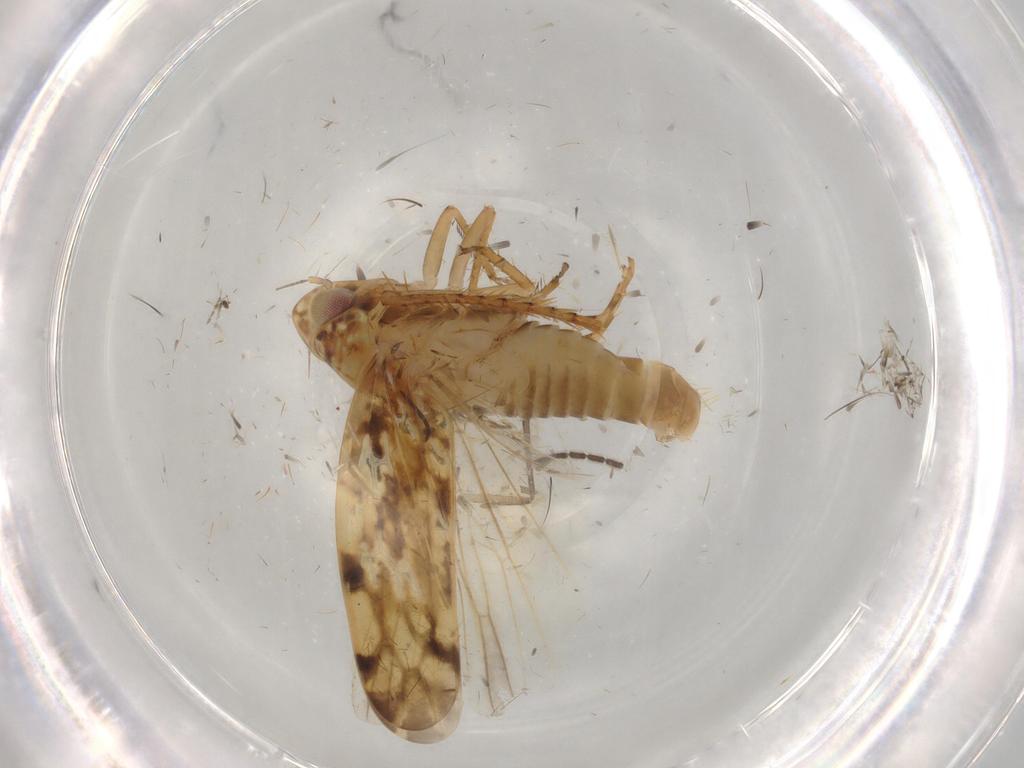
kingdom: Animalia
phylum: Arthropoda
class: Insecta
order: Hemiptera
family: Cicadellidae
